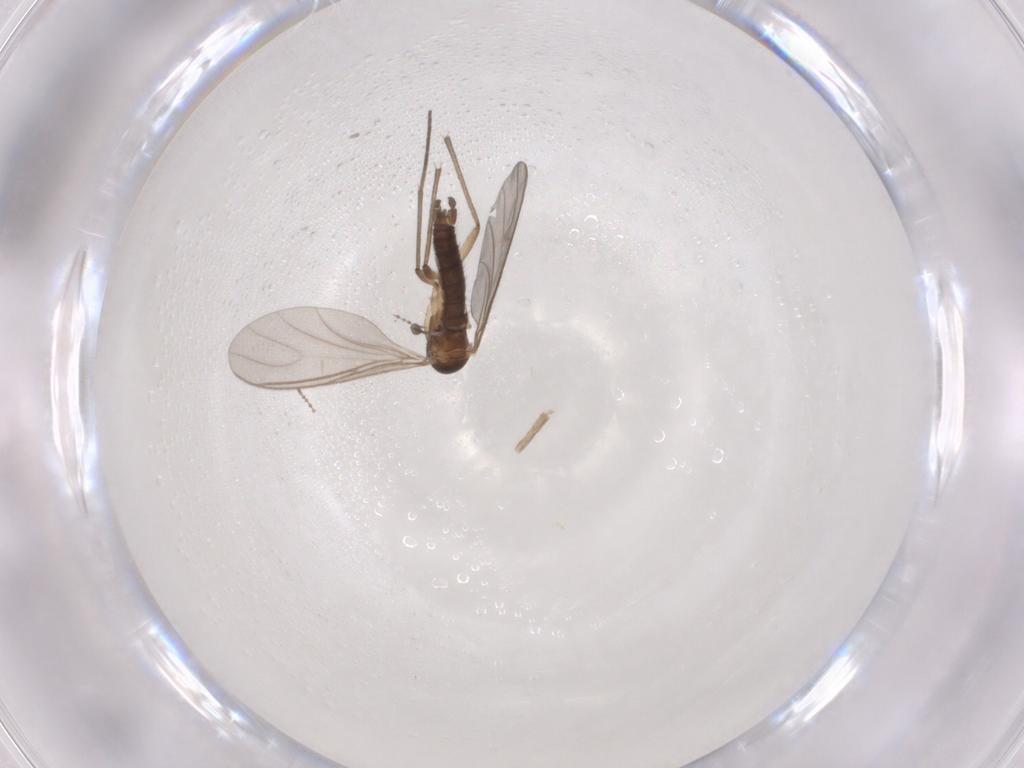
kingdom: Animalia
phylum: Arthropoda
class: Insecta
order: Diptera
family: Sciaridae
